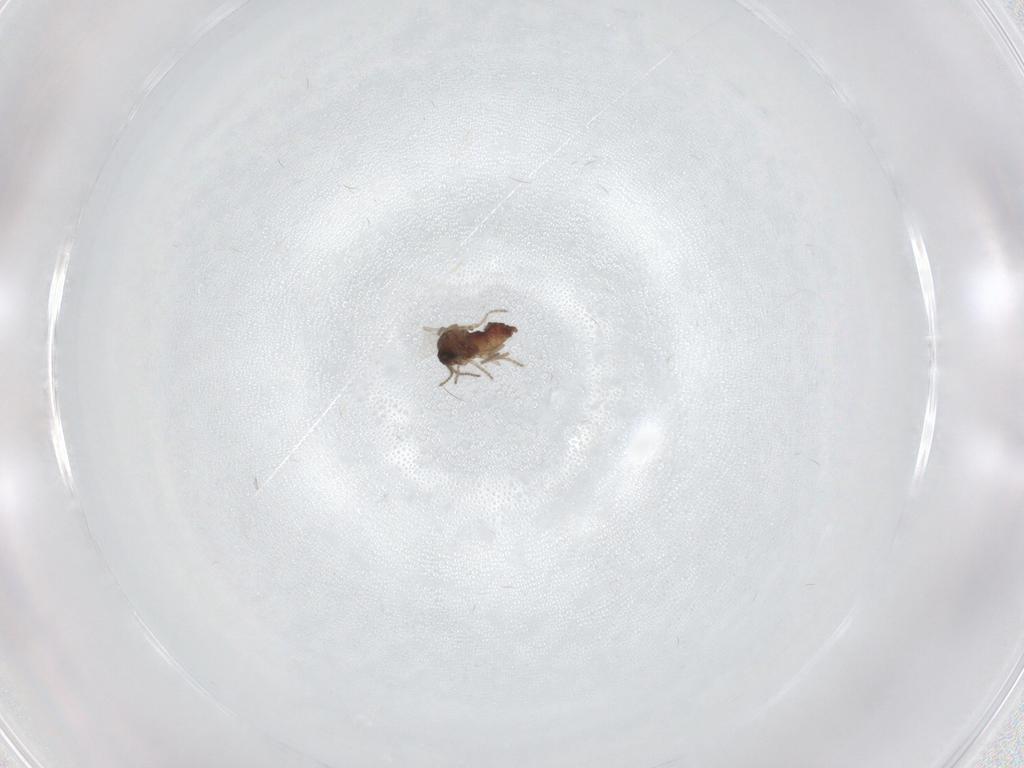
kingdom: Animalia
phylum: Arthropoda
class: Insecta
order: Diptera
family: Ceratopogonidae
